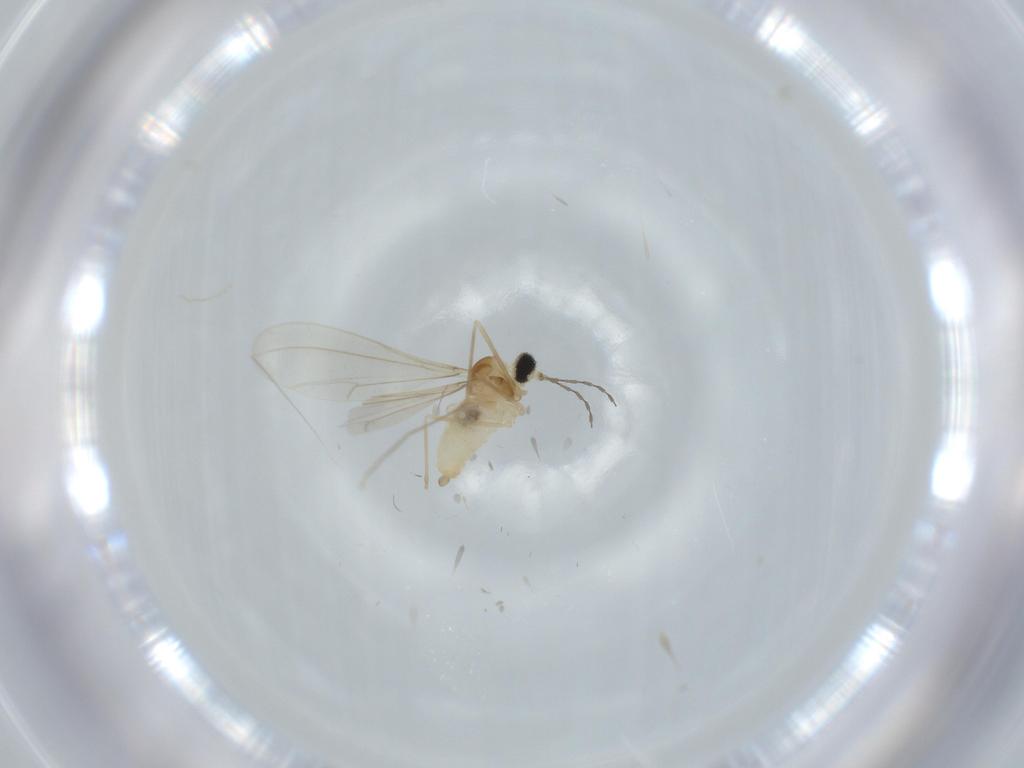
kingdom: Animalia
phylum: Arthropoda
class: Insecta
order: Diptera
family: Cecidomyiidae
